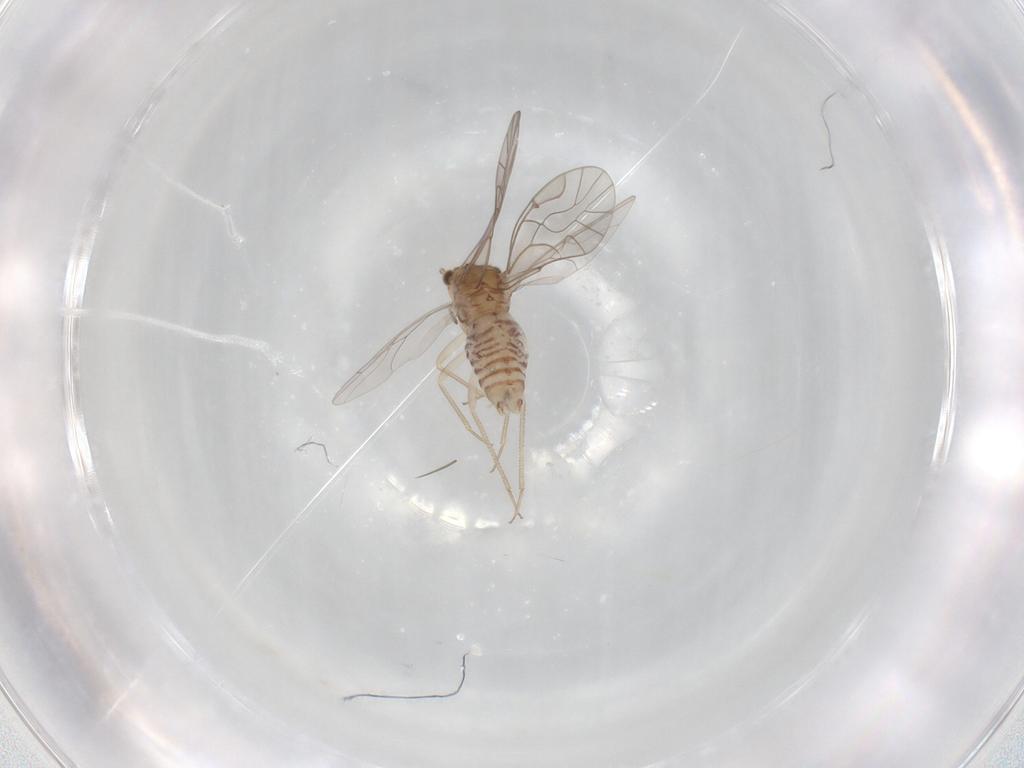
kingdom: Animalia
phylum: Arthropoda
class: Insecta
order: Psocodea
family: Lachesillidae
